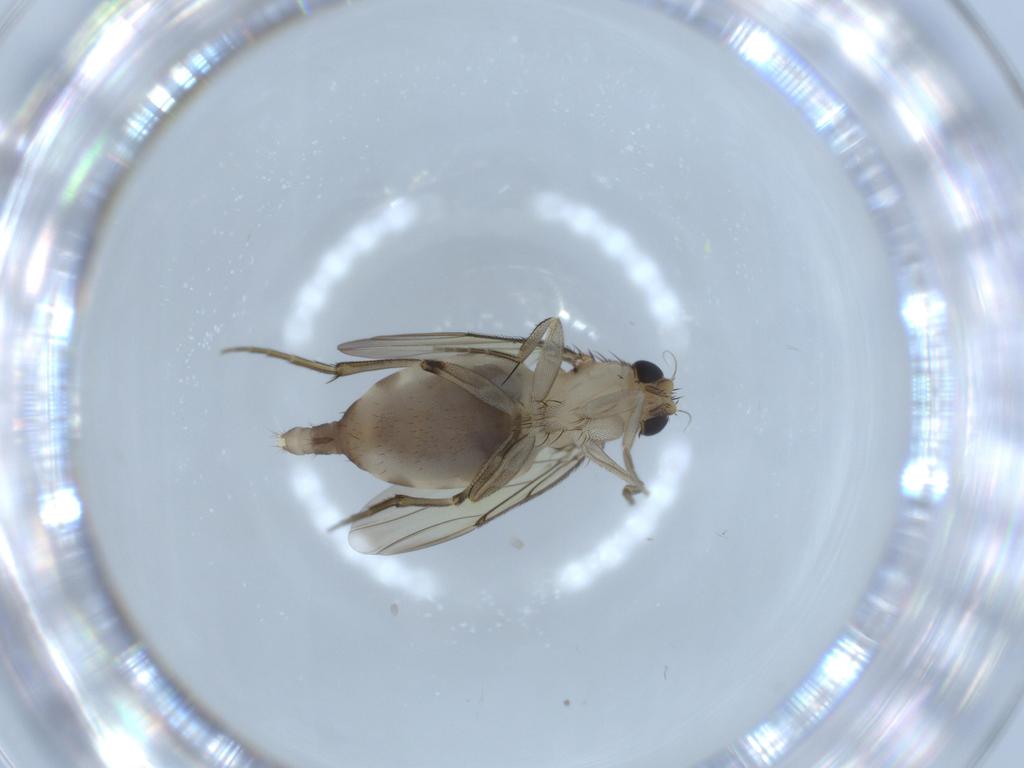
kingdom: Animalia
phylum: Arthropoda
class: Insecta
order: Diptera
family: Phoridae
